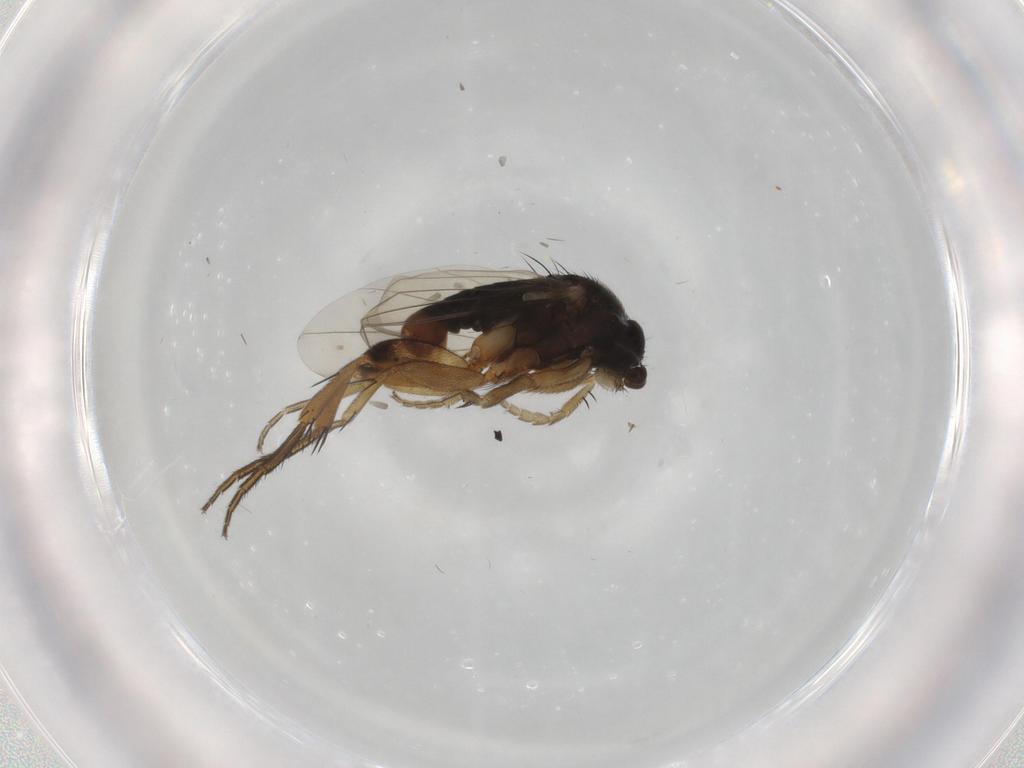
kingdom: Animalia
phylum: Arthropoda
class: Insecta
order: Diptera
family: Phoridae
